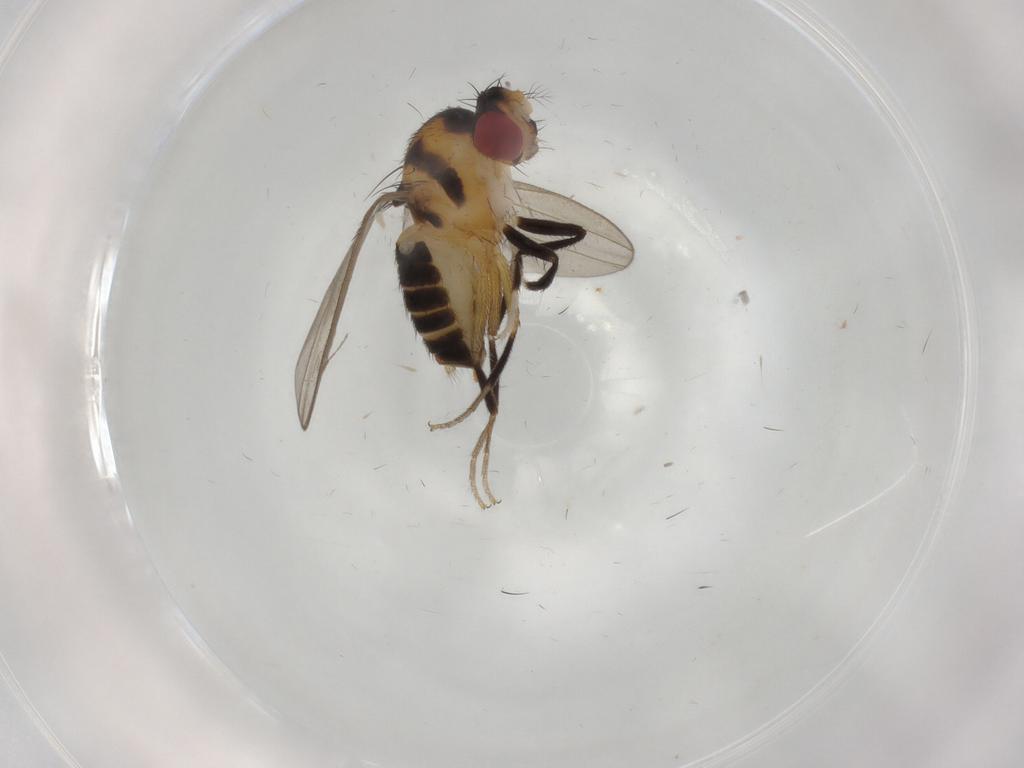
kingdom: Animalia
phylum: Arthropoda
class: Insecta
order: Diptera
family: Drosophilidae
